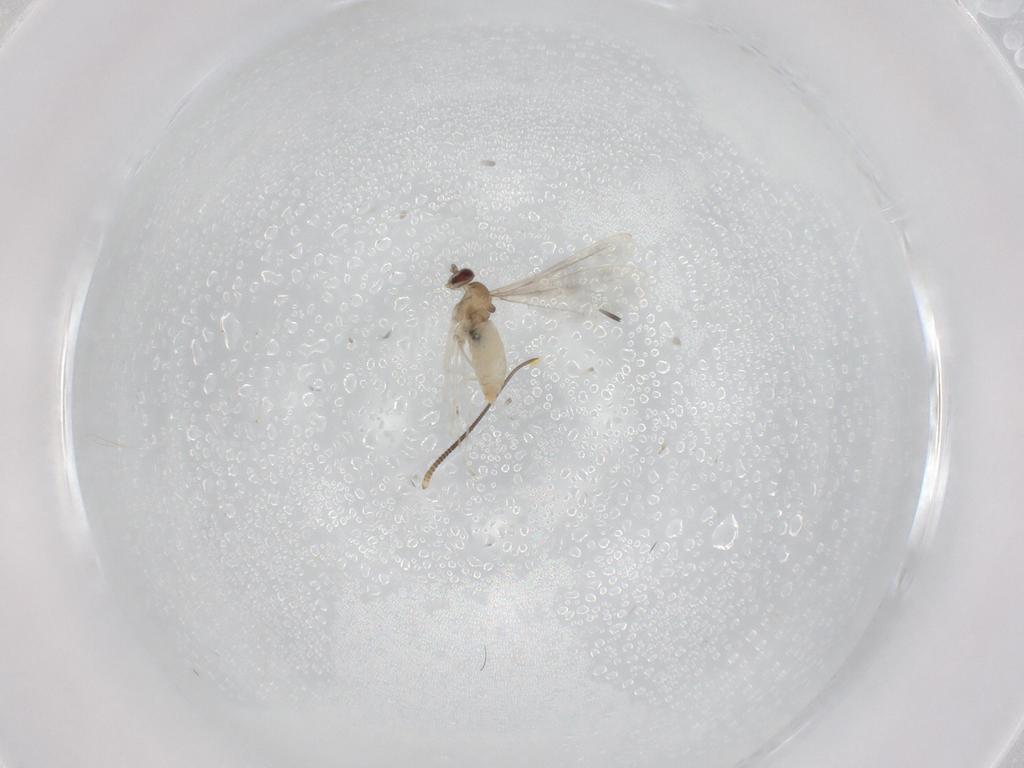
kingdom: Animalia
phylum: Arthropoda
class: Insecta
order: Diptera
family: Cecidomyiidae
